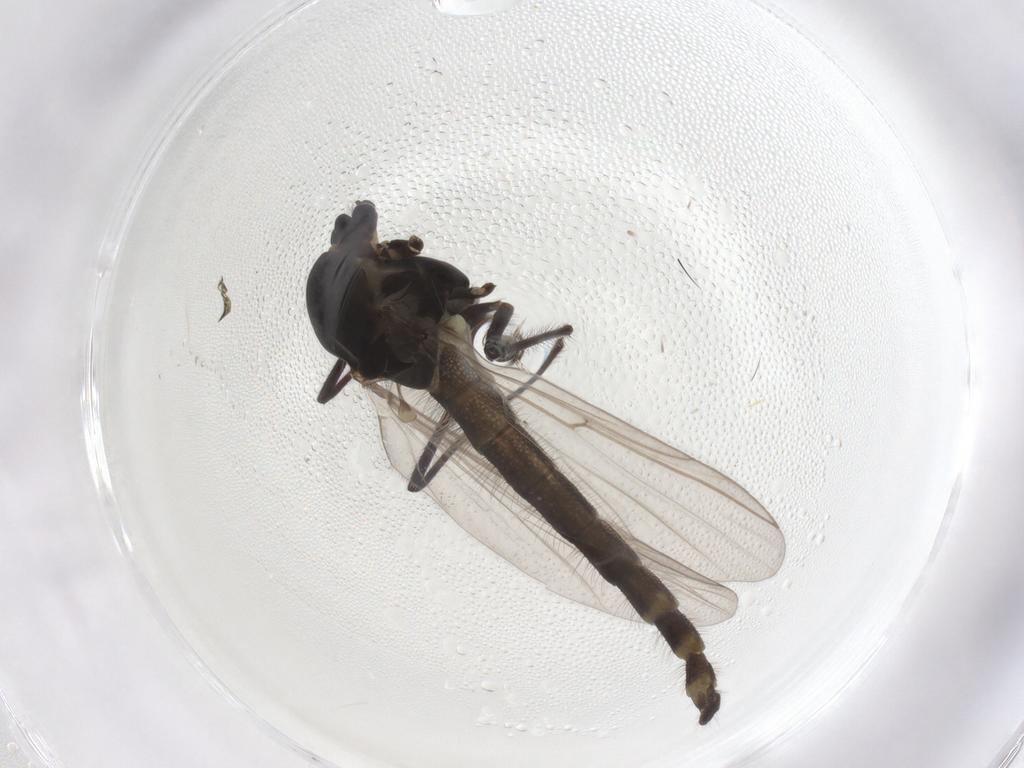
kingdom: Animalia
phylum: Arthropoda
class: Insecta
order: Diptera
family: Chironomidae
